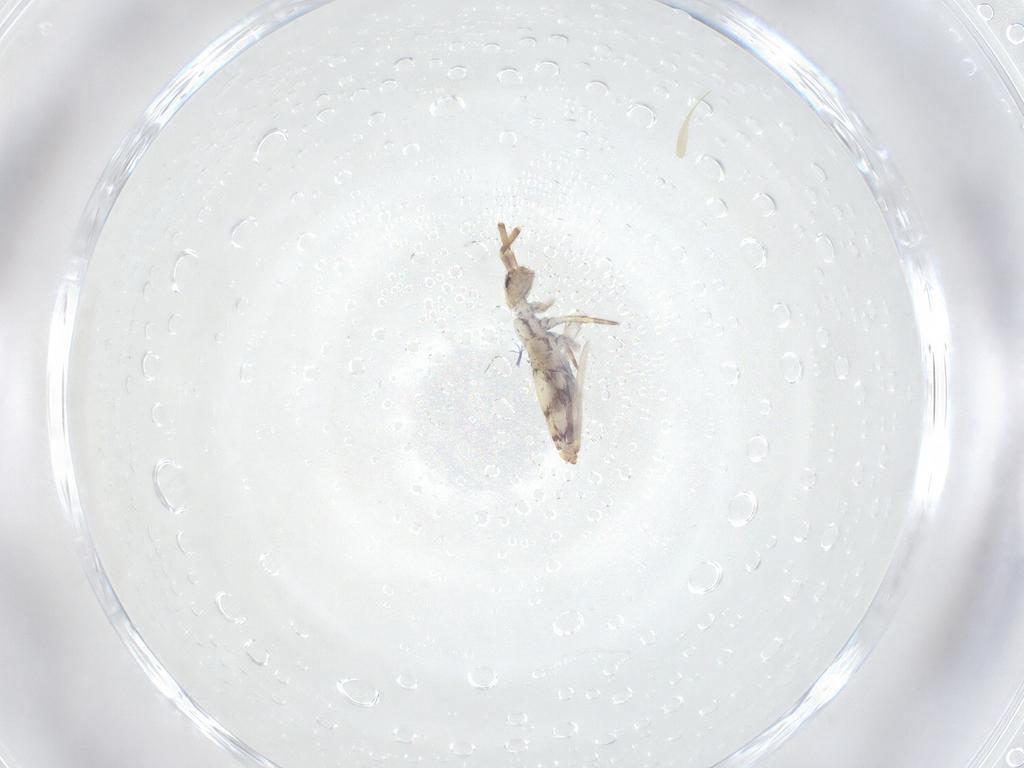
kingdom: Animalia
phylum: Arthropoda
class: Collembola
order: Entomobryomorpha
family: Entomobryidae
